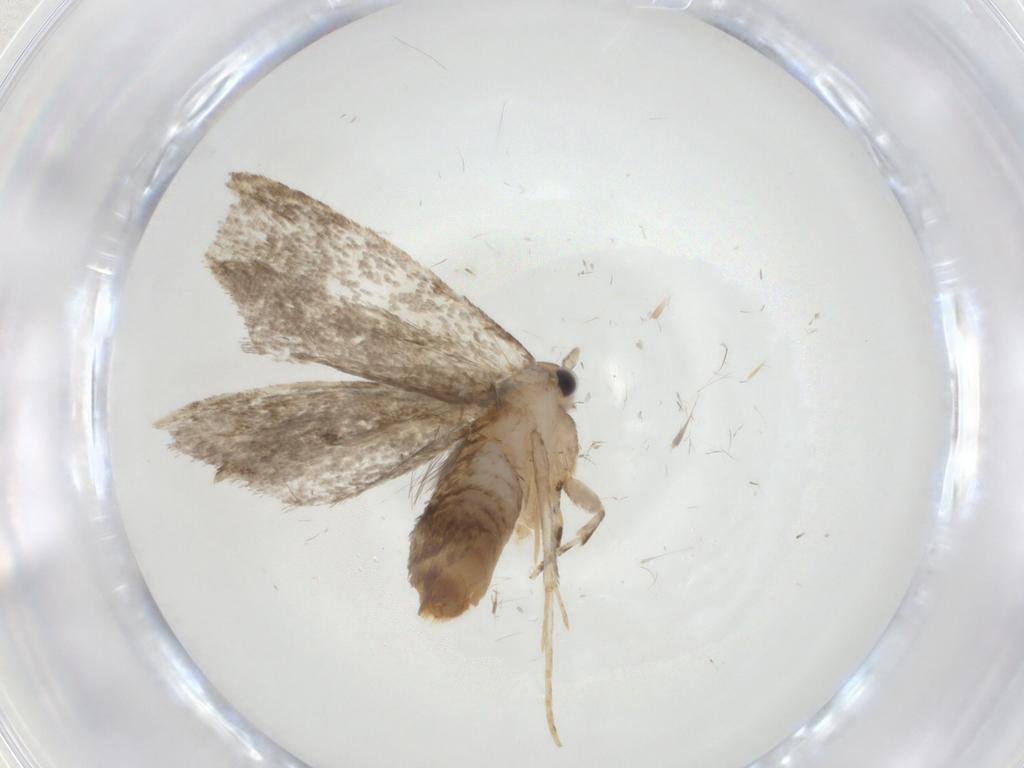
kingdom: Animalia
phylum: Arthropoda
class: Insecta
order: Lepidoptera
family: Tineidae
